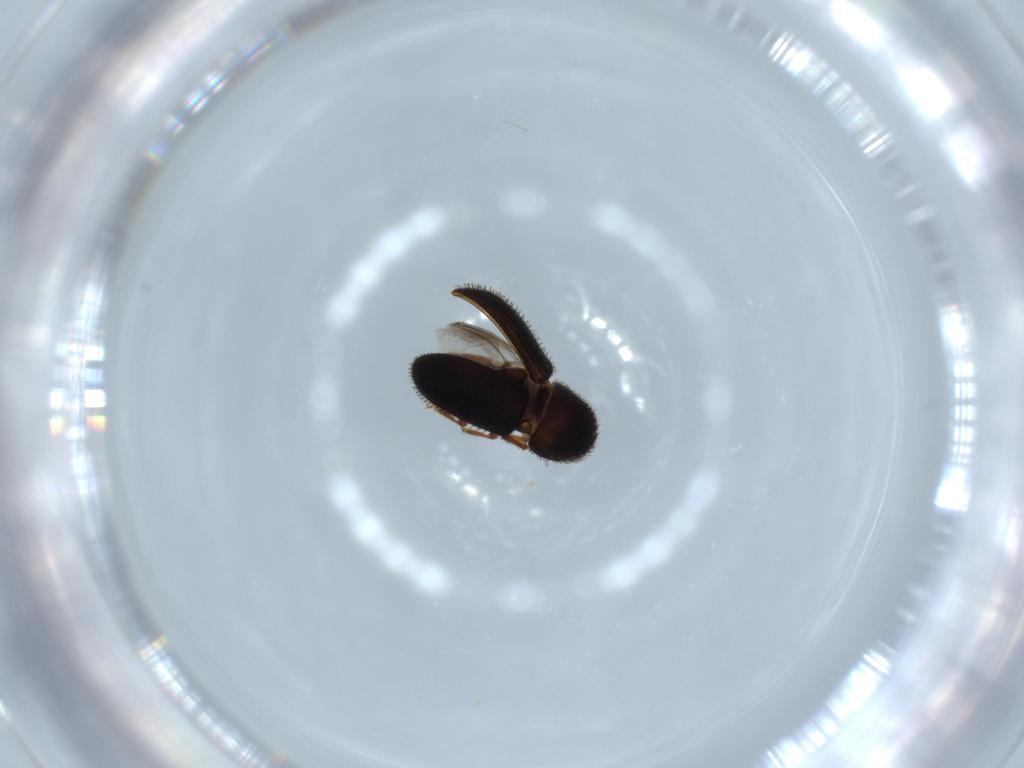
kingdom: Animalia
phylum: Arthropoda
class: Insecta
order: Coleoptera
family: Curculionidae
